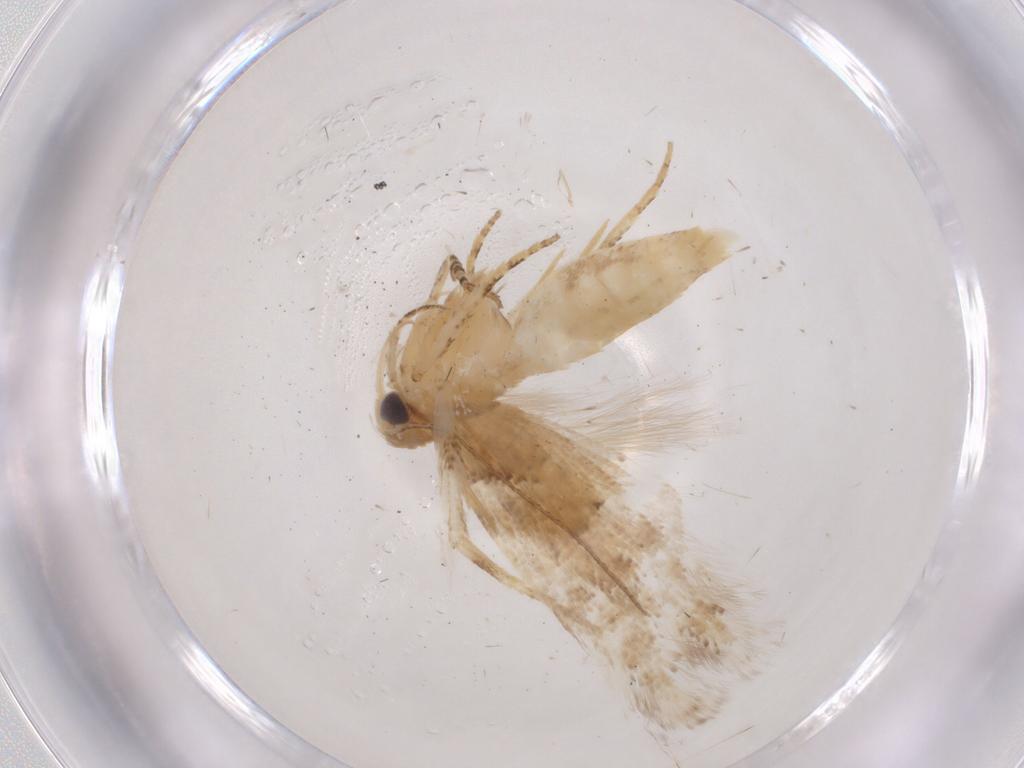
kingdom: Animalia
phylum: Arthropoda
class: Insecta
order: Lepidoptera
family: Gelechiidae
